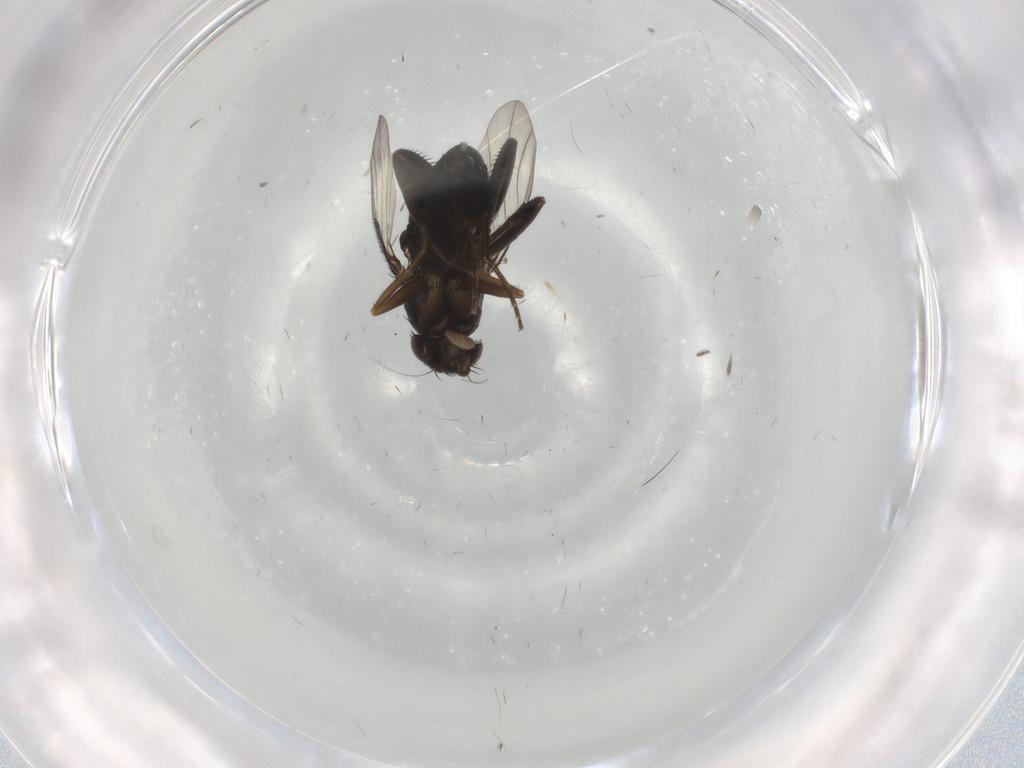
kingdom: Animalia
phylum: Arthropoda
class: Insecta
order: Diptera
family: Phoridae
